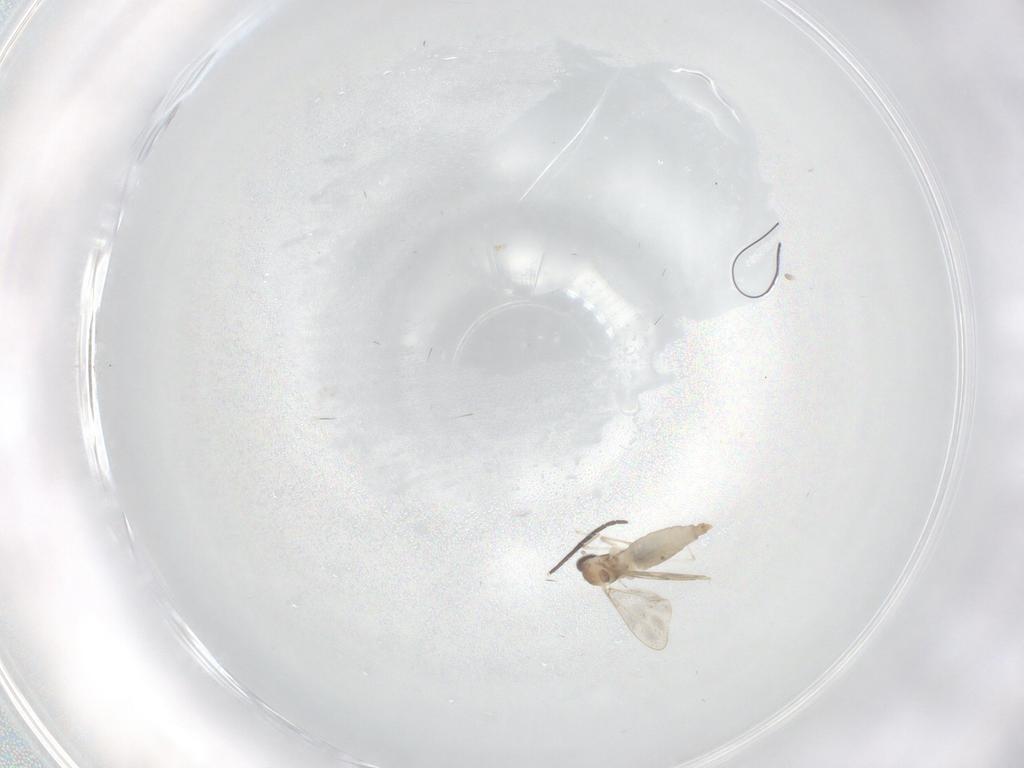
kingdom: Animalia
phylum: Arthropoda
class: Insecta
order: Diptera
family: Cecidomyiidae
